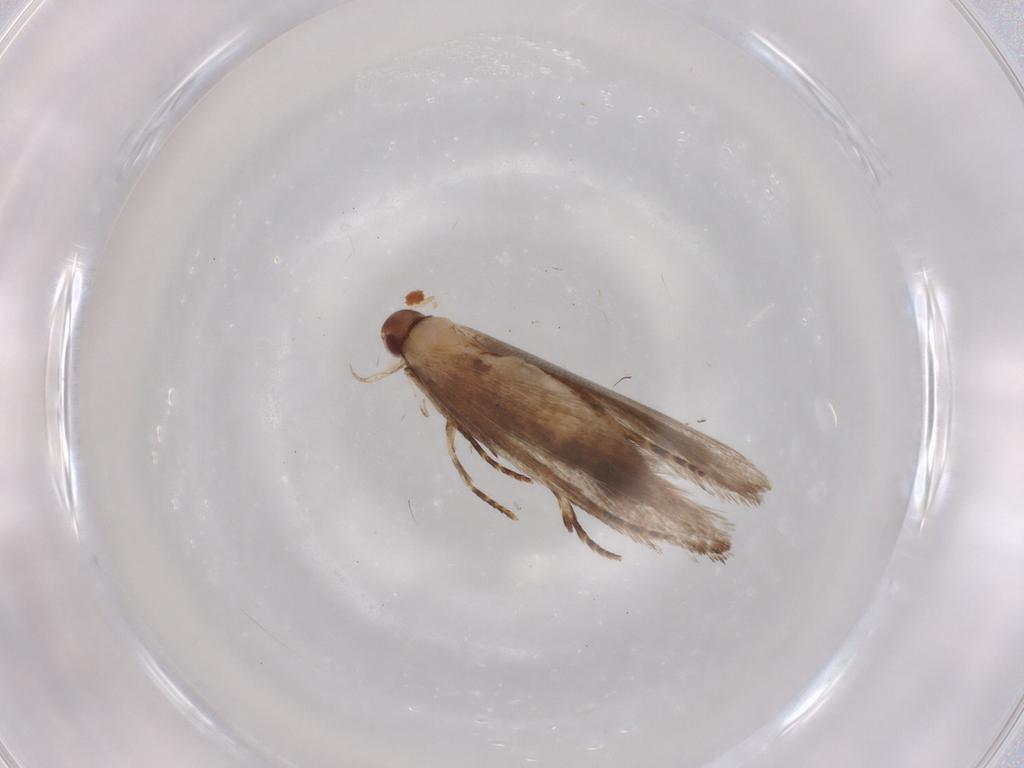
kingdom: Animalia
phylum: Arthropoda
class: Insecta
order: Lepidoptera
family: Gelechiidae
